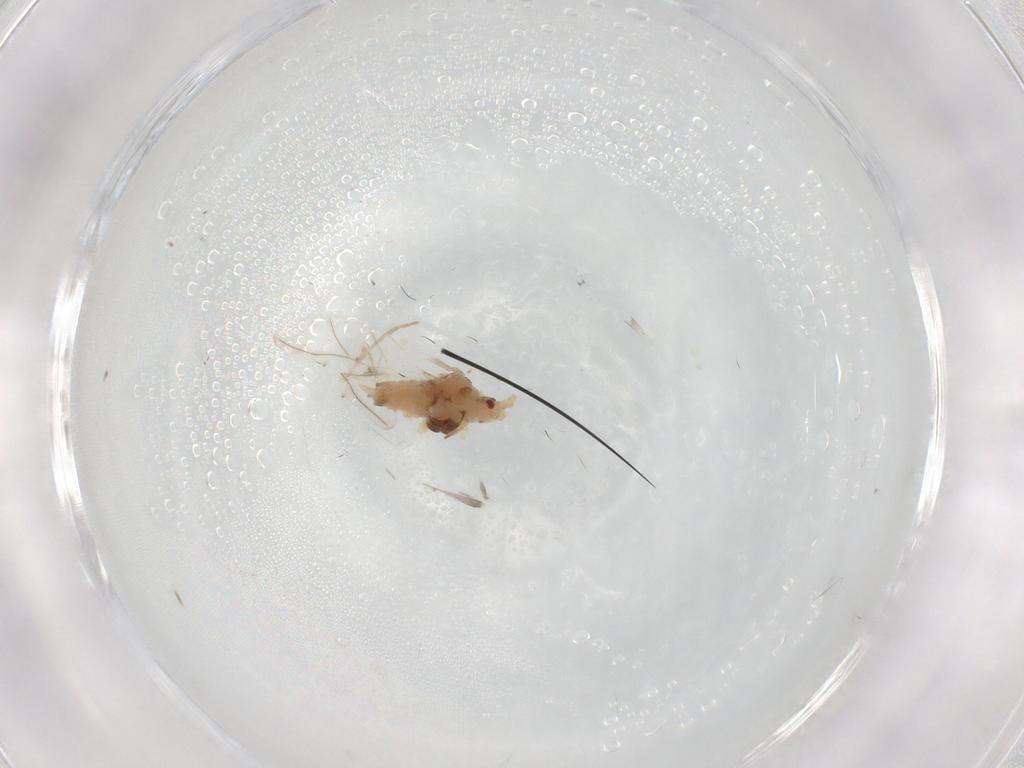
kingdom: Animalia
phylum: Arthropoda
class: Insecta
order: Hemiptera
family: Aphididae
